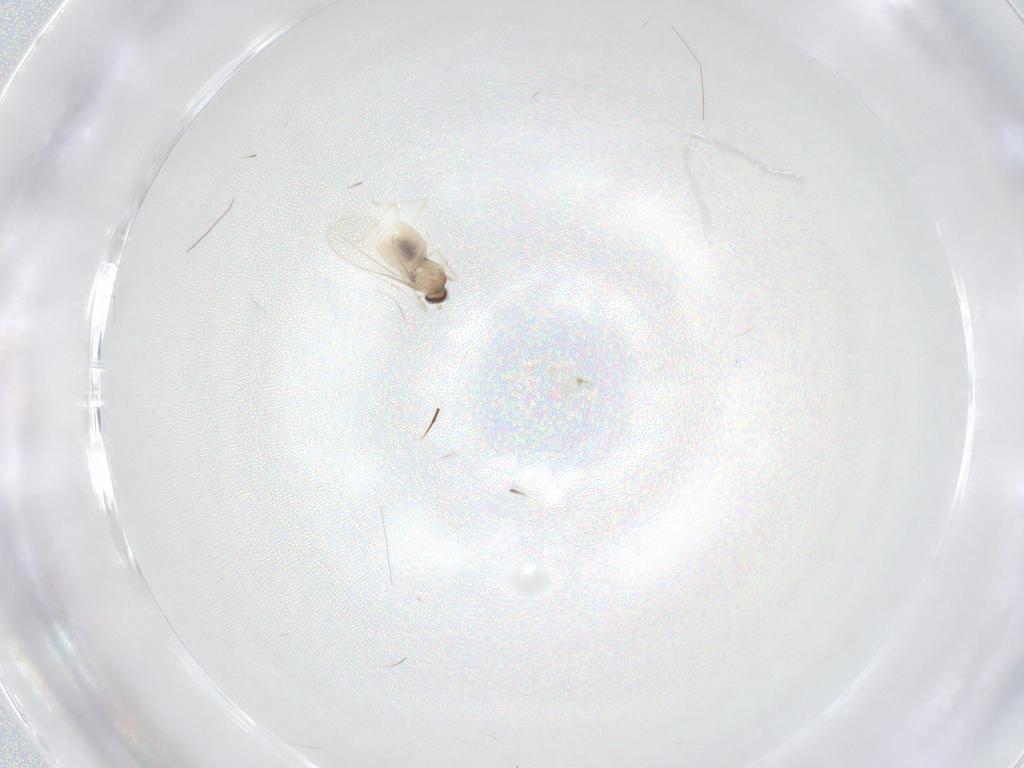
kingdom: Animalia
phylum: Arthropoda
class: Insecta
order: Diptera
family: Cecidomyiidae
